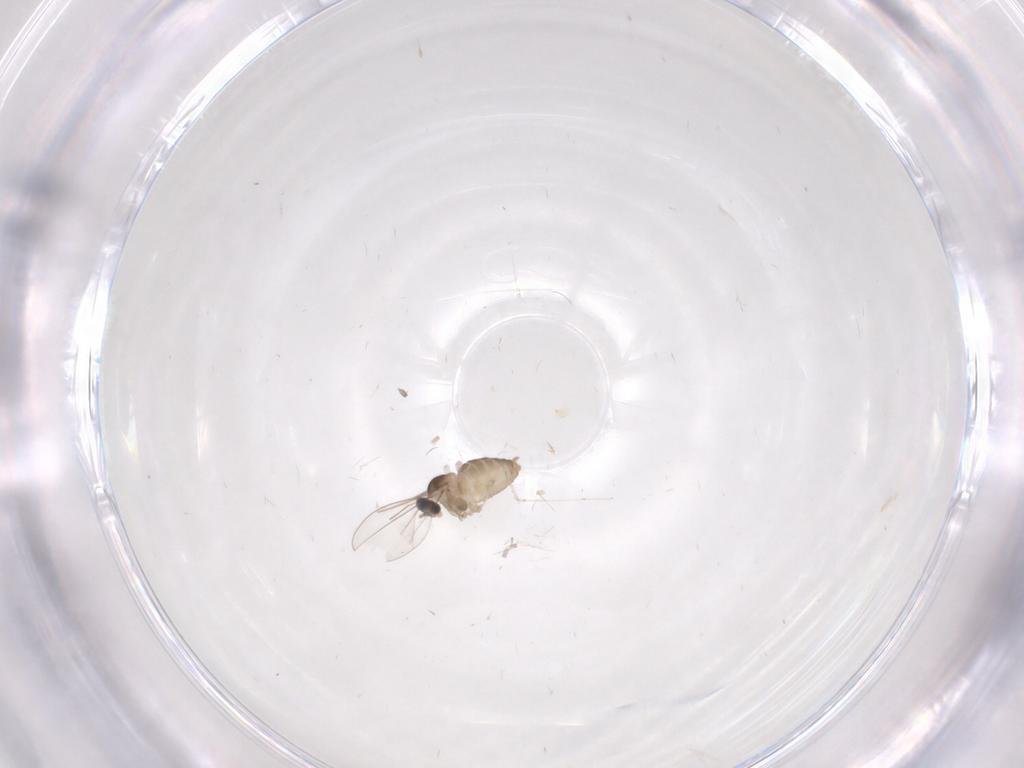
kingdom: Animalia
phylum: Arthropoda
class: Insecta
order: Diptera
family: Cecidomyiidae
